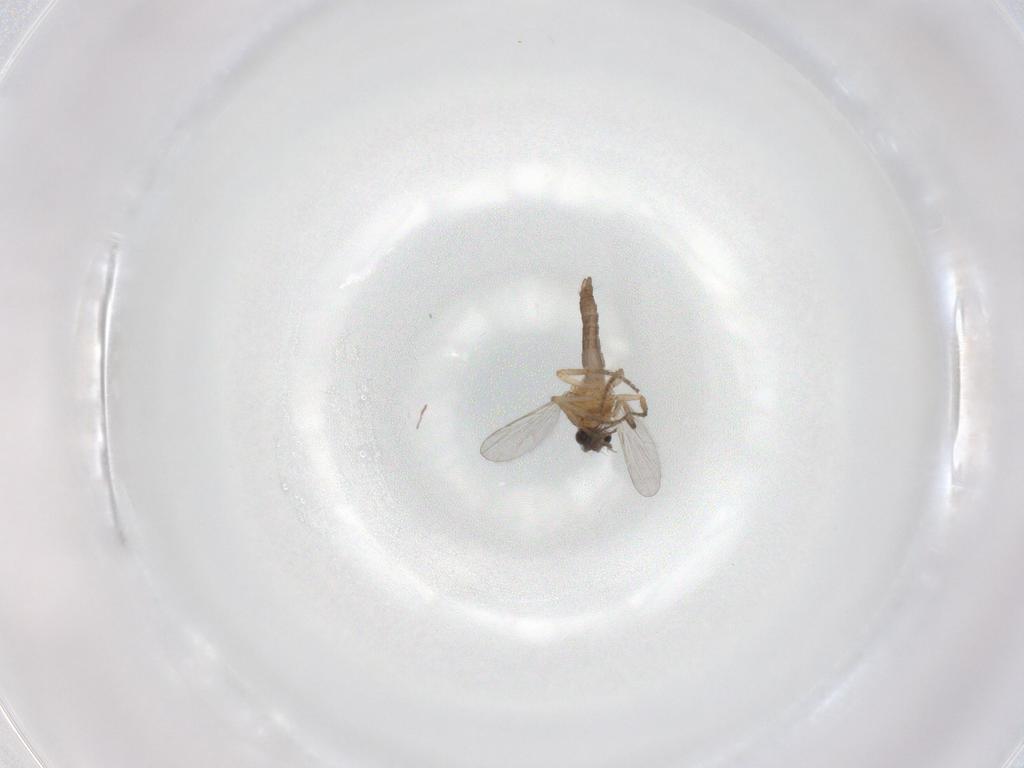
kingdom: Animalia
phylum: Arthropoda
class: Insecta
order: Diptera
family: Ceratopogonidae
